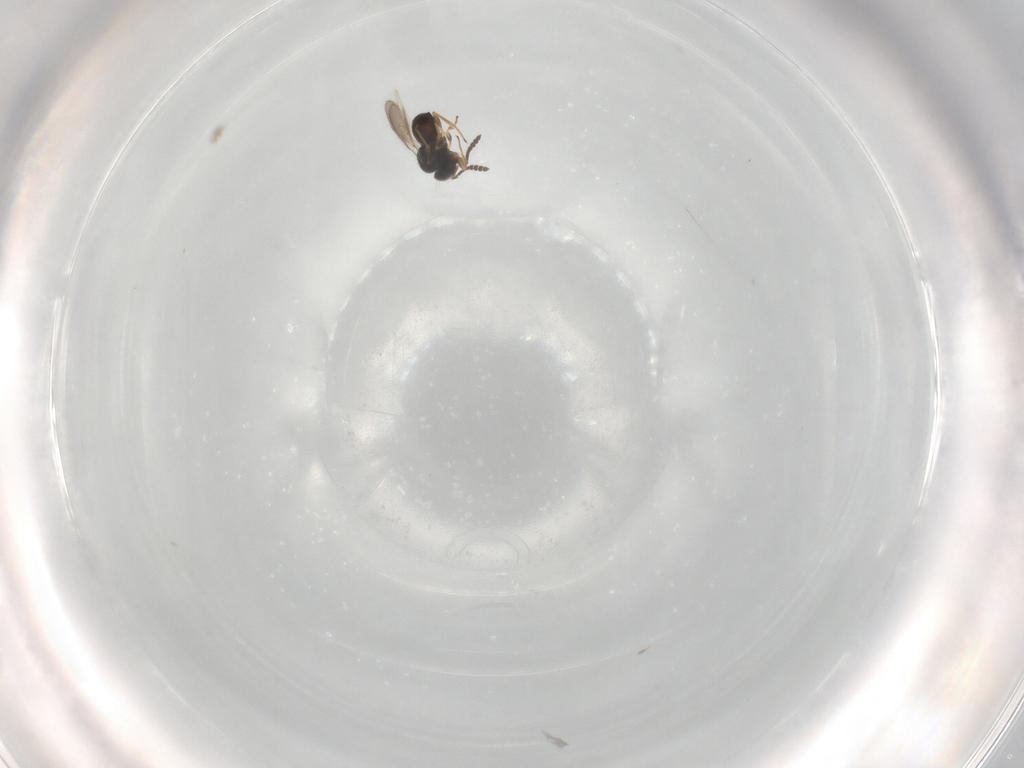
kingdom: Animalia
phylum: Arthropoda
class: Insecta
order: Hymenoptera
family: Scelionidae
